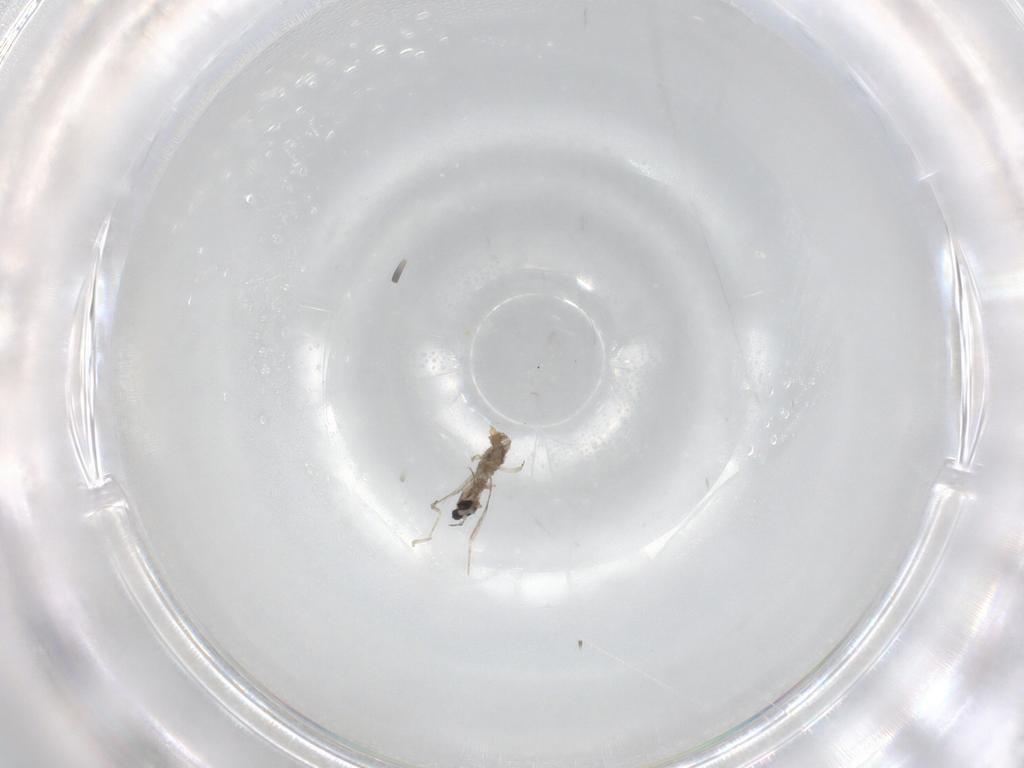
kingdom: Animalia
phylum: Arthropoda
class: Insecta
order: Diptera
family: Cecidomyiidae
